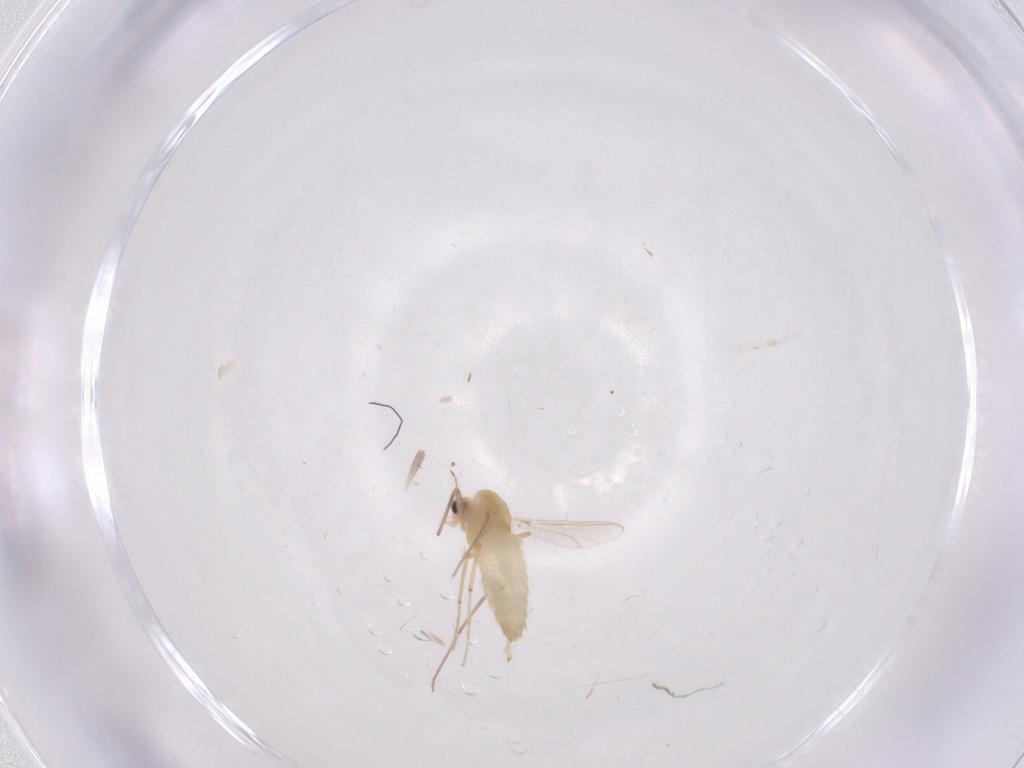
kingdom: Animalia
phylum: Arthropoda
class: Insecta
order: Diptera
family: Chironomidae
